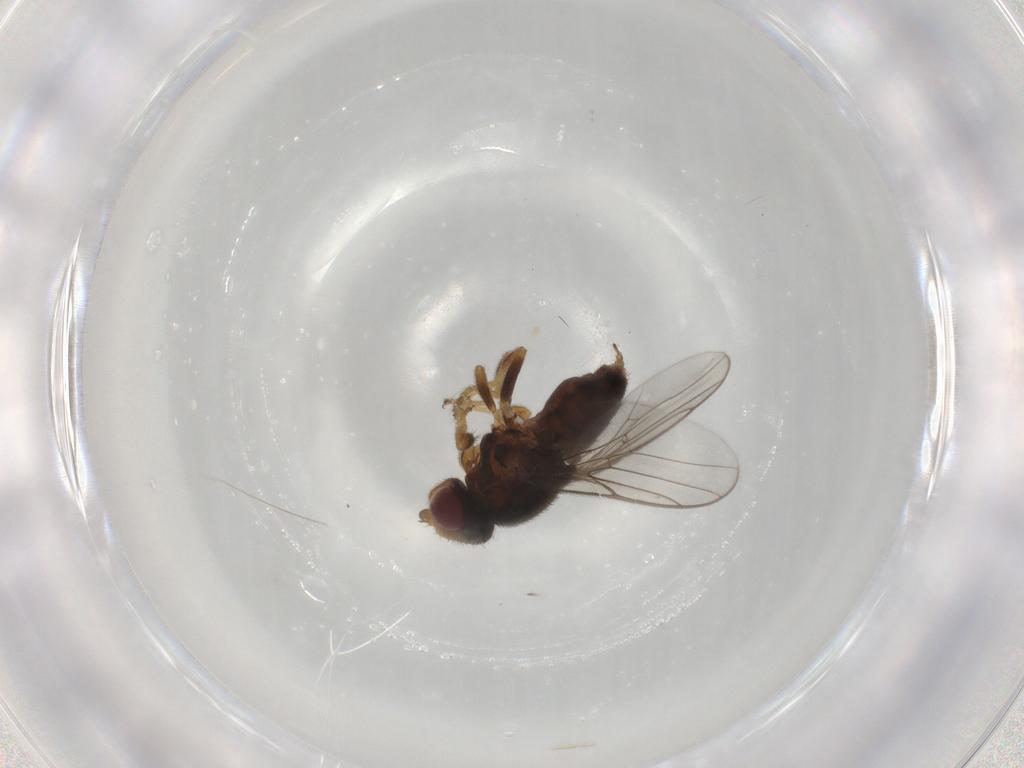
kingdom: Animalia
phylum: Arthropoda
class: Insecta
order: Diptera
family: Chloropidae
